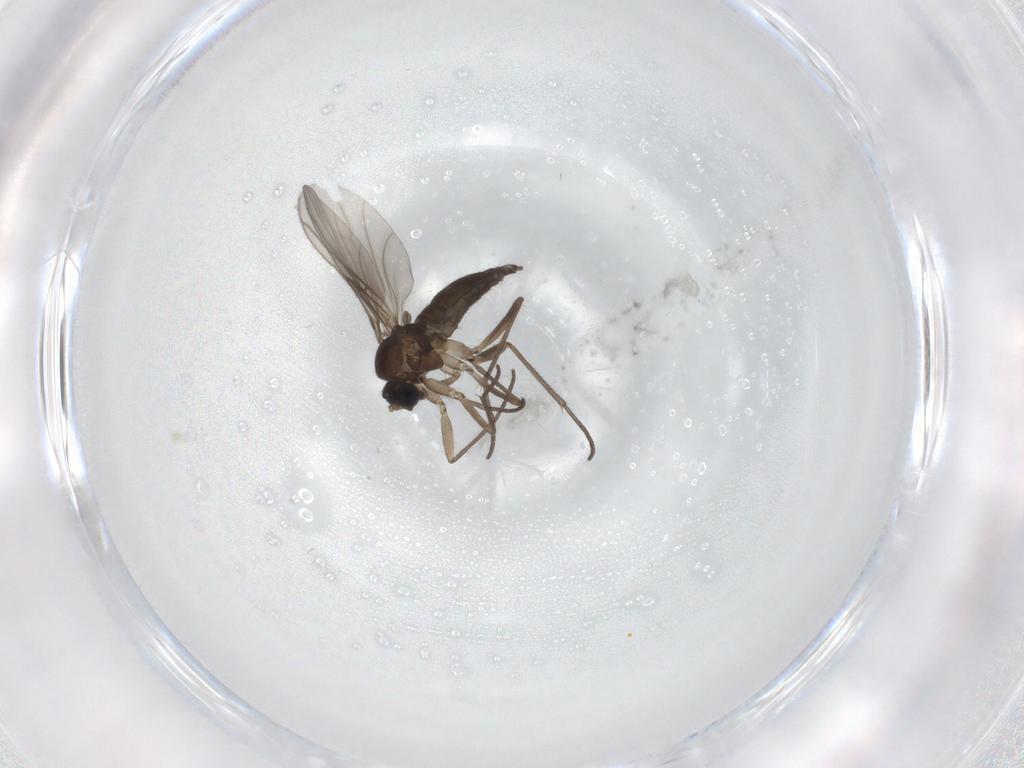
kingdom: Animalia
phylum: Arthropoda
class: Insecta
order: Diptera
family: Sciaridae
